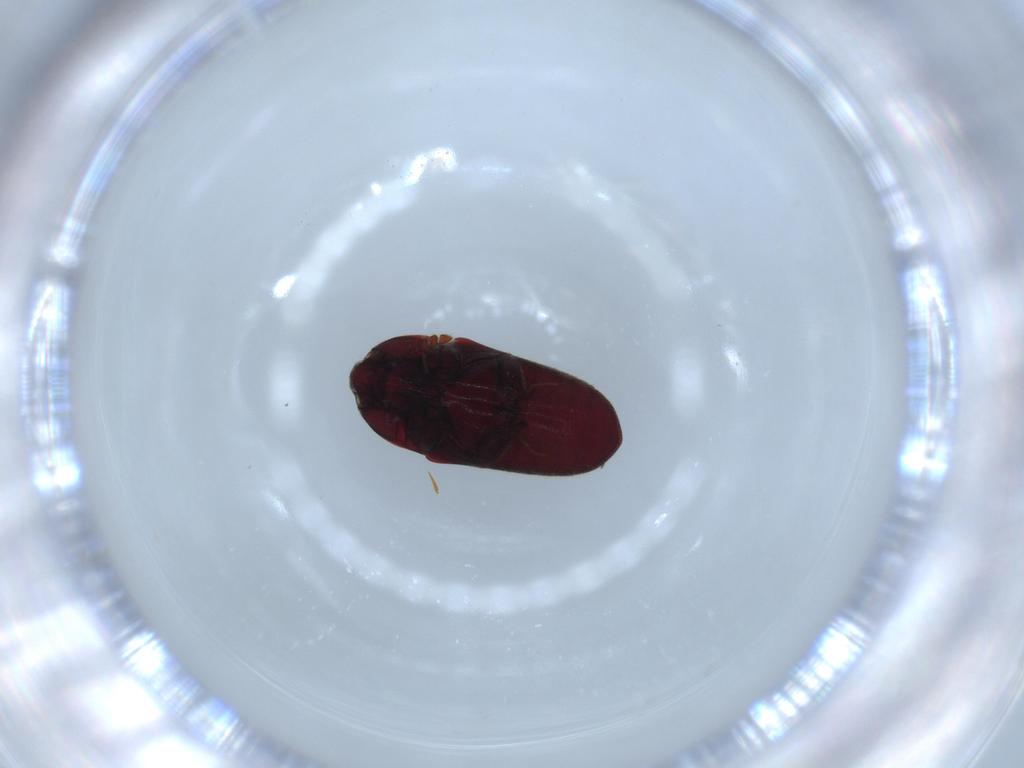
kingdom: Animalia
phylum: Arthropoda
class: Insecta
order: Coleoptera
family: Throscidae
